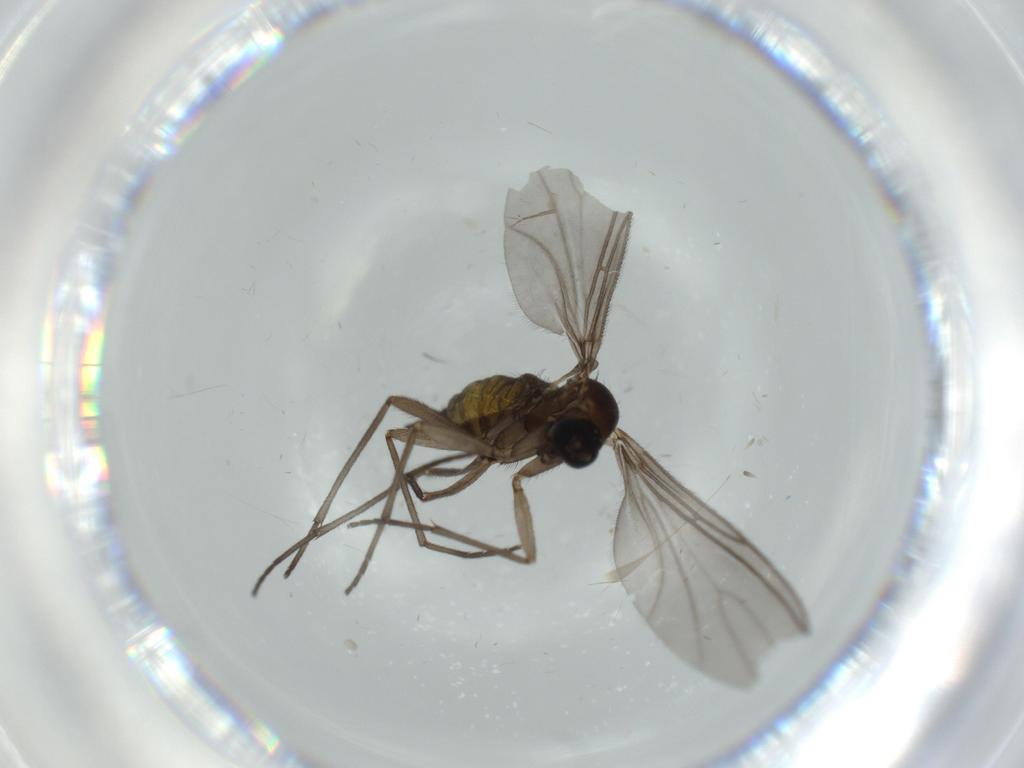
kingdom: Animalia
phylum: Arthropoda
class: Insecta
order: Diptera
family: Sciaridae
